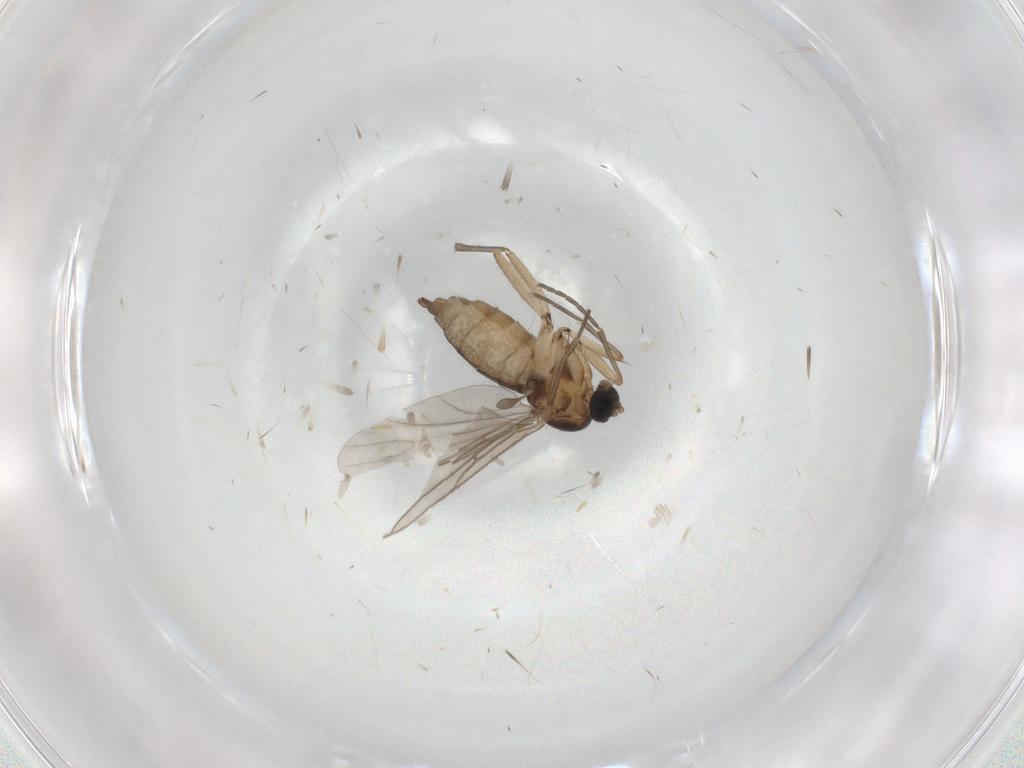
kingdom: Animalia
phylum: Arthropoda
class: Insecta
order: Diptera
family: Sciaridae
